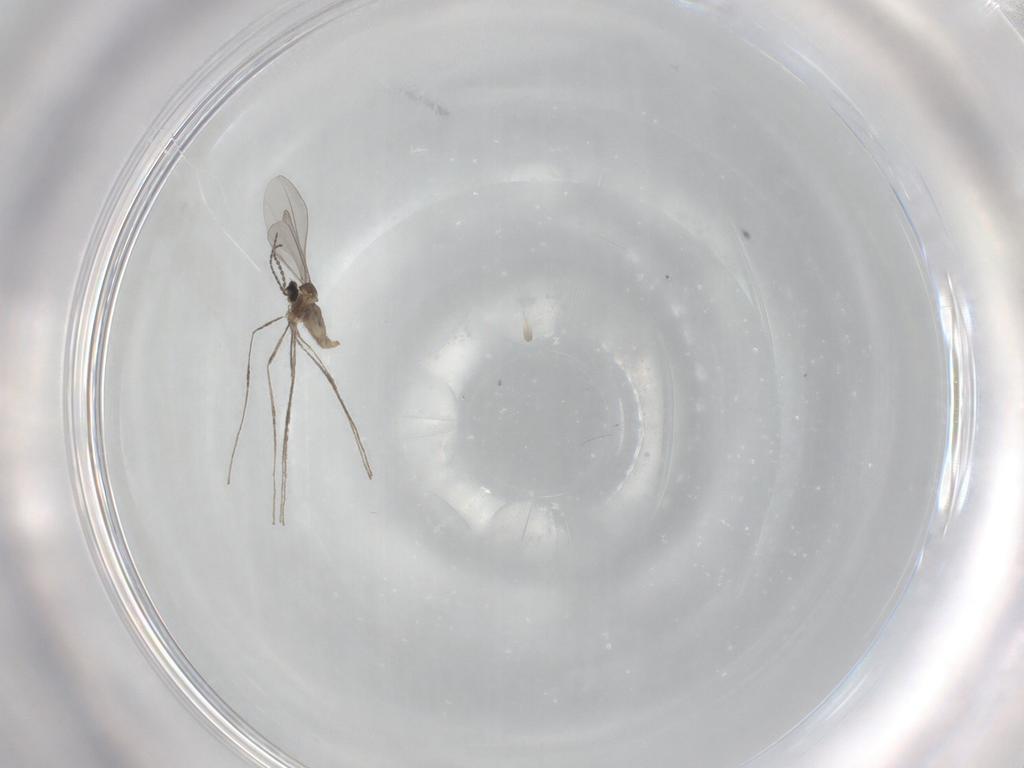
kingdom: Animalia
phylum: Arthropoda
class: Insecta
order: Diptera
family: Cecidomyiidae
